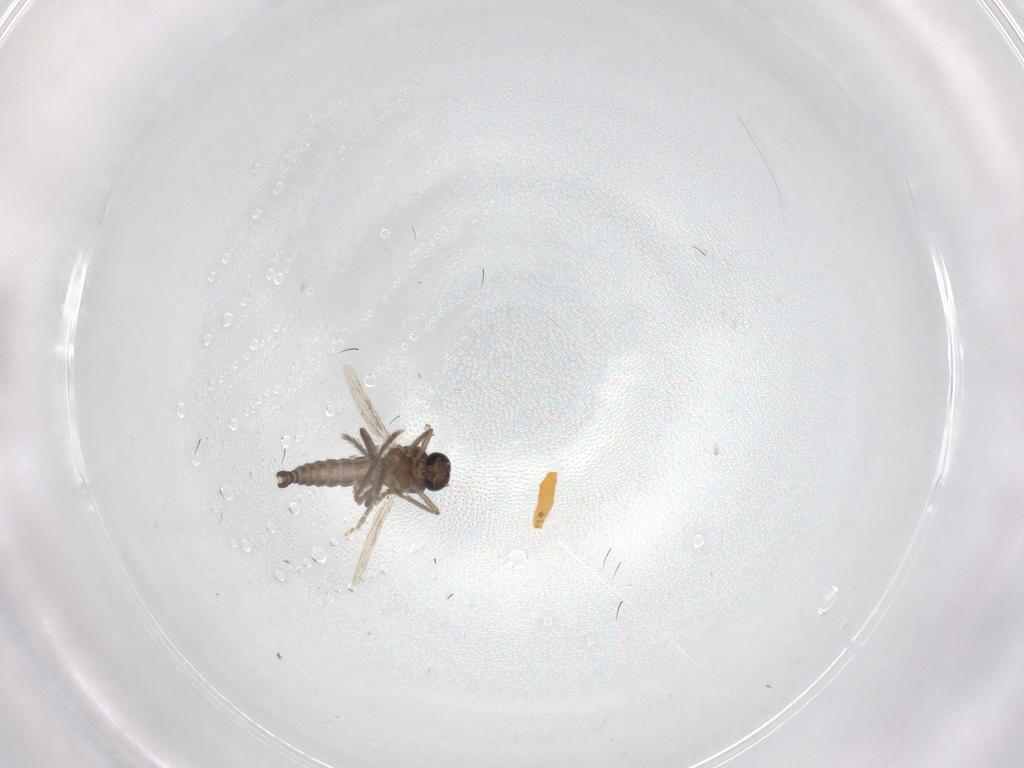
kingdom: Animalia
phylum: Arthropoda
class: Insecta
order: Diptera
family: Ceratopogonidae
